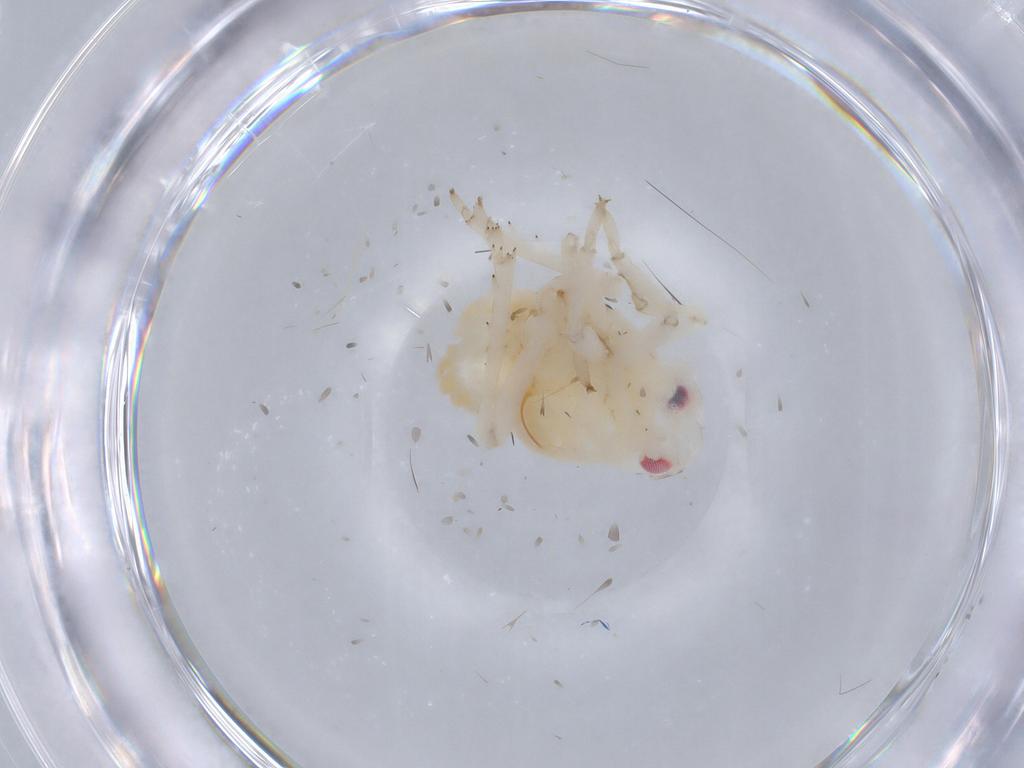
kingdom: Animalia
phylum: Arthropoda
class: Insecta
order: Hemiptera
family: Ricaniidae
